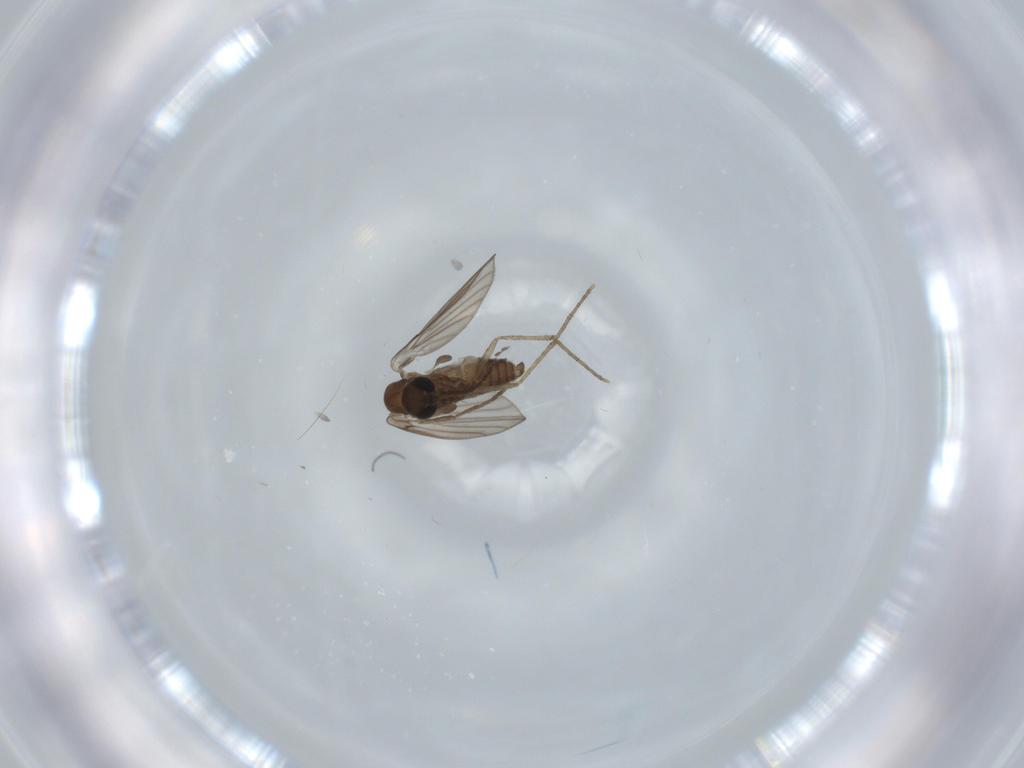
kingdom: Animalia
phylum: Arthropoda
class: Insecta
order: Diptera
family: Psychodidae
